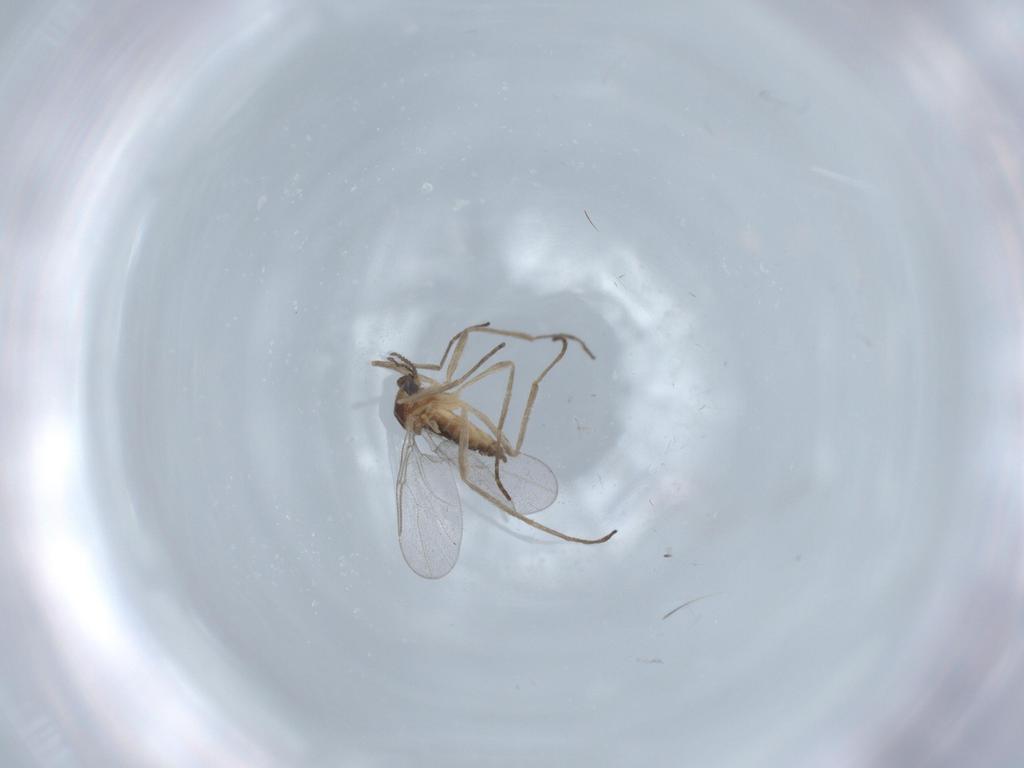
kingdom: Animalia
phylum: Arthropoda
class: Insecta
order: Diptera
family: Cecidomyiidae
